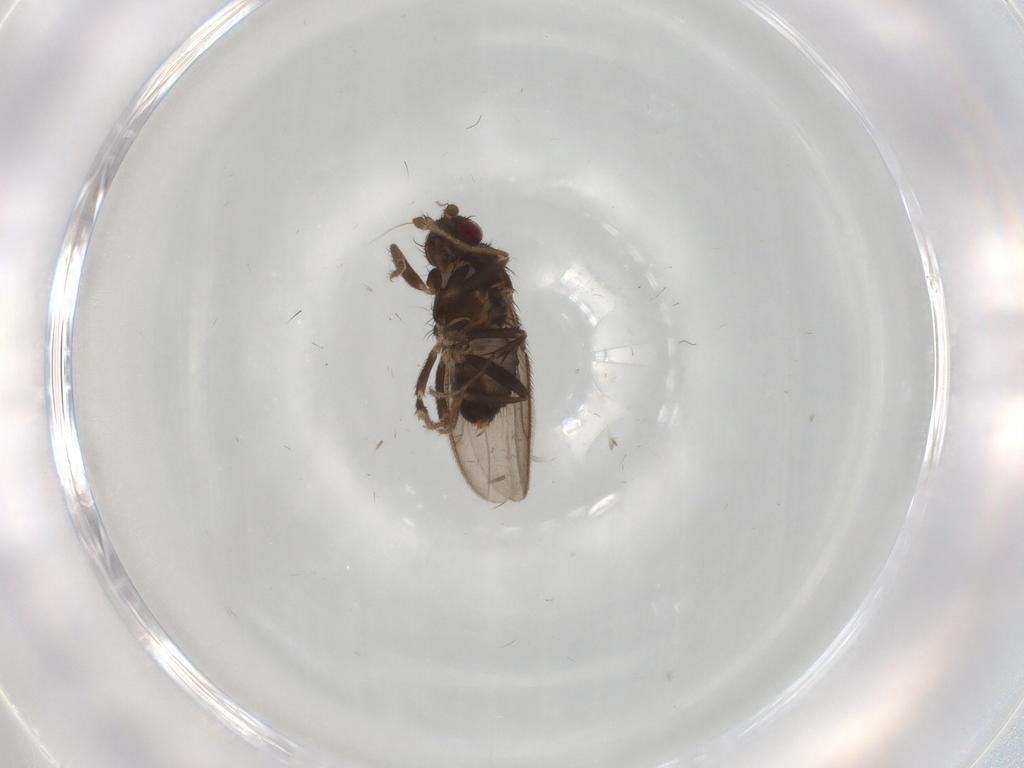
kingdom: Animalia
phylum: Arthropoda
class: Insecta
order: Diptera
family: Sphaeroceridae
